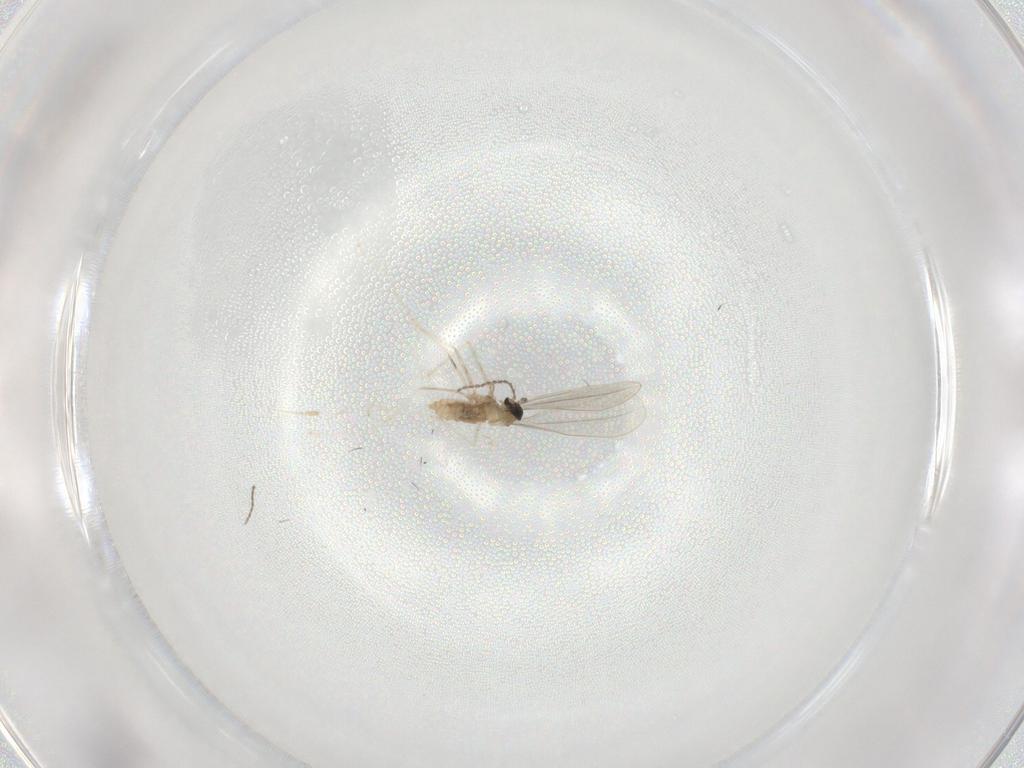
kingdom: Animalia
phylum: Arthropoda
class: Insecta
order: Diptera
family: Cecidomyiidae
